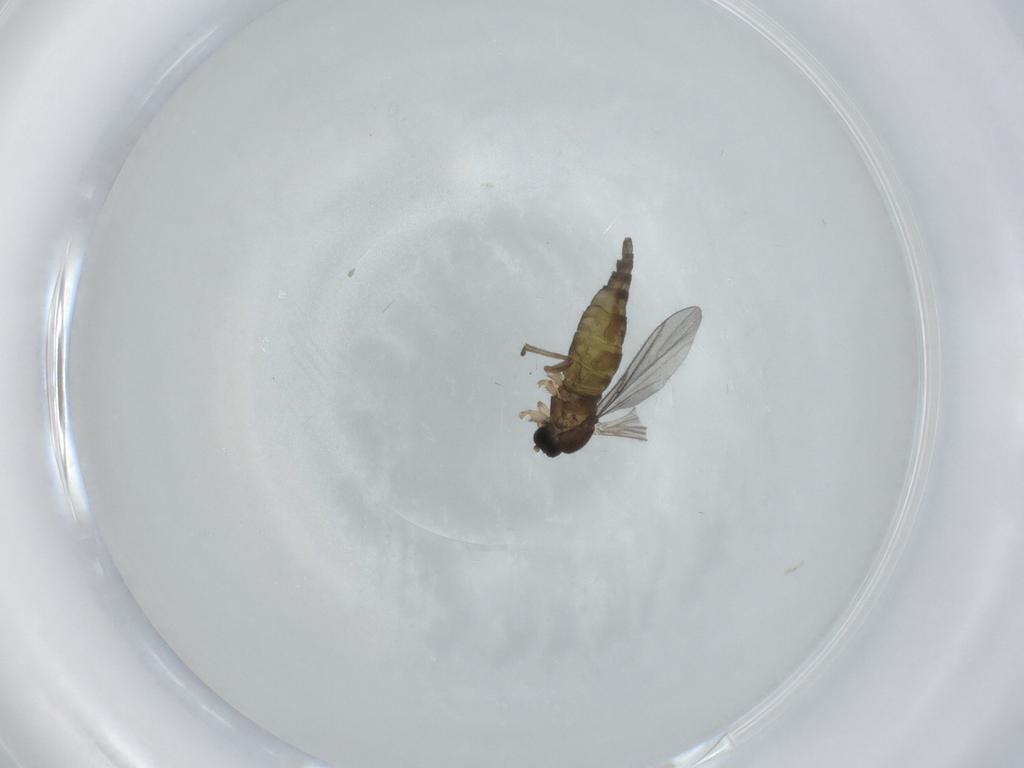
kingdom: Animalia
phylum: Arthropoda
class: Insecta
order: Diptera
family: Sciaridae
